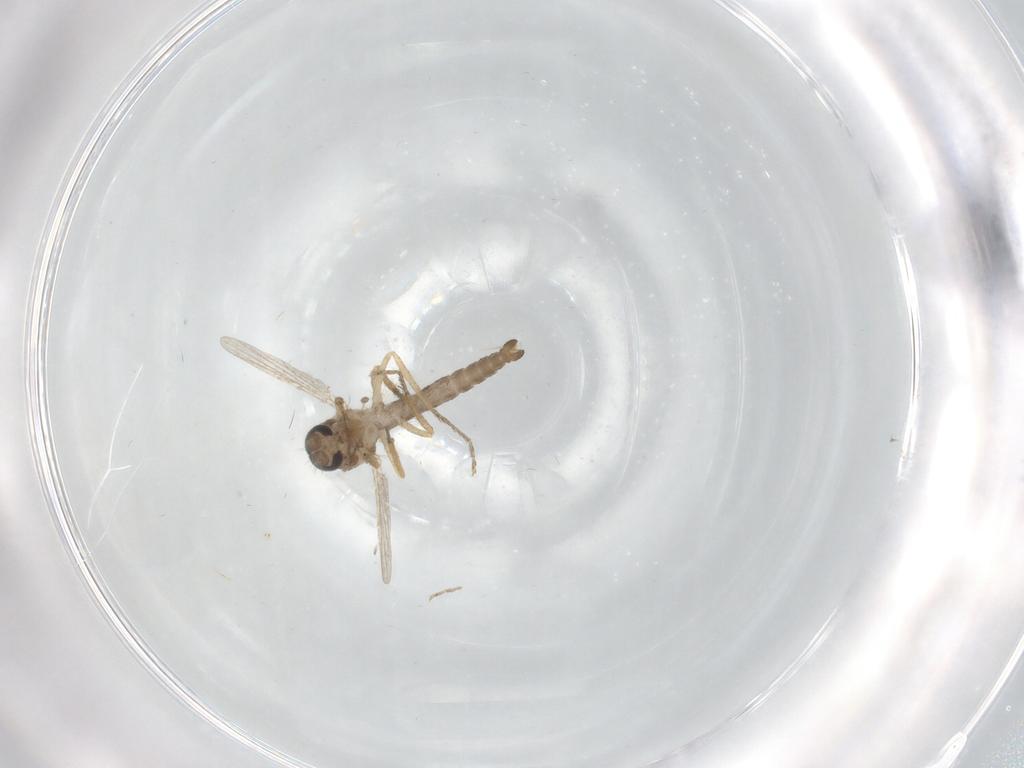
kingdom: Animalia
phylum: Arthropoda
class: Insecta
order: Diptera
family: Ceratopogonidae
